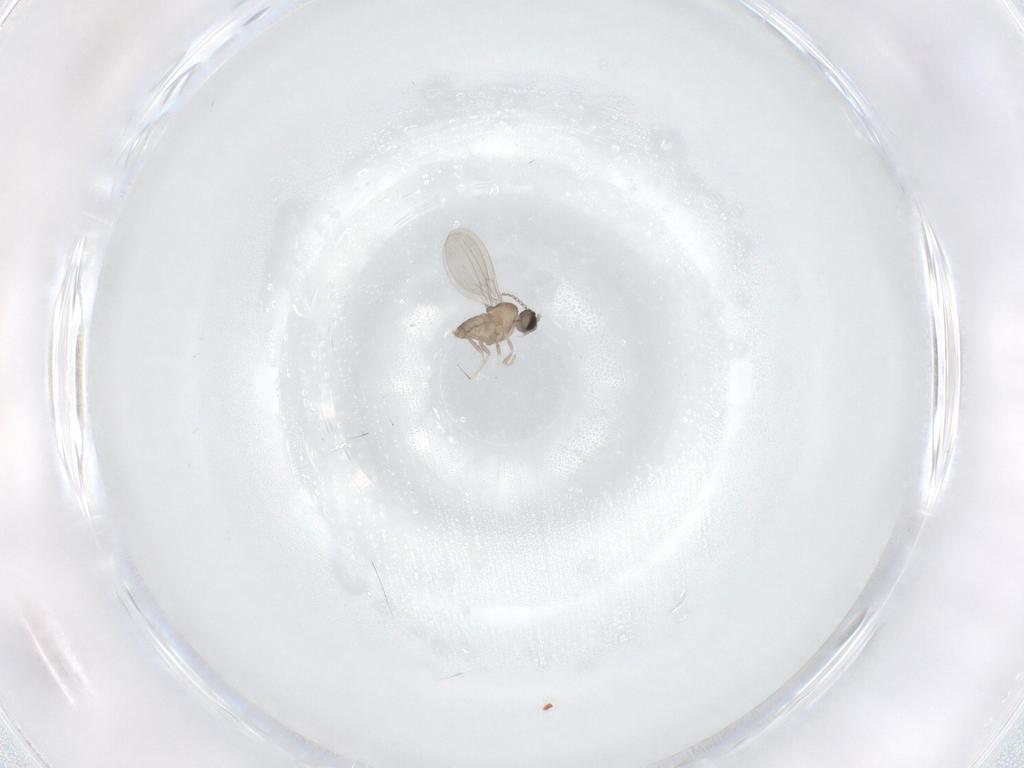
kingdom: Animalia
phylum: Arthropoda
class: Insecta
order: Diptera
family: Cecidomyiidae
